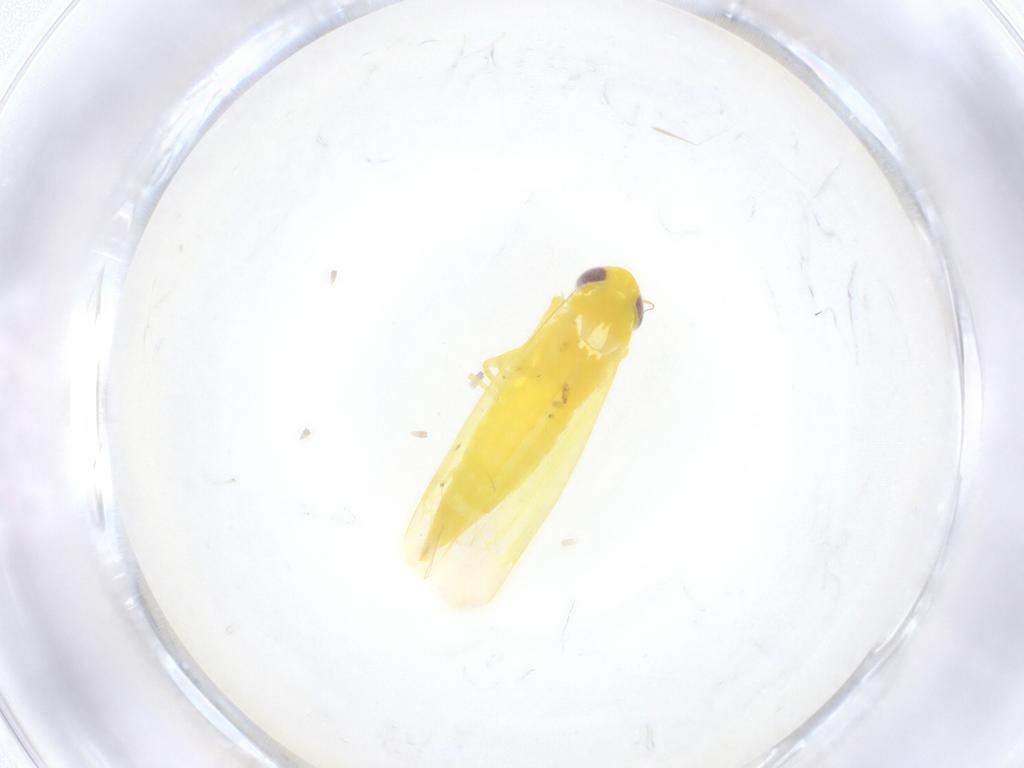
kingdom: Animalia
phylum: Arthropoda
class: Insecta
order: Hemiptera
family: Cicadellidae
